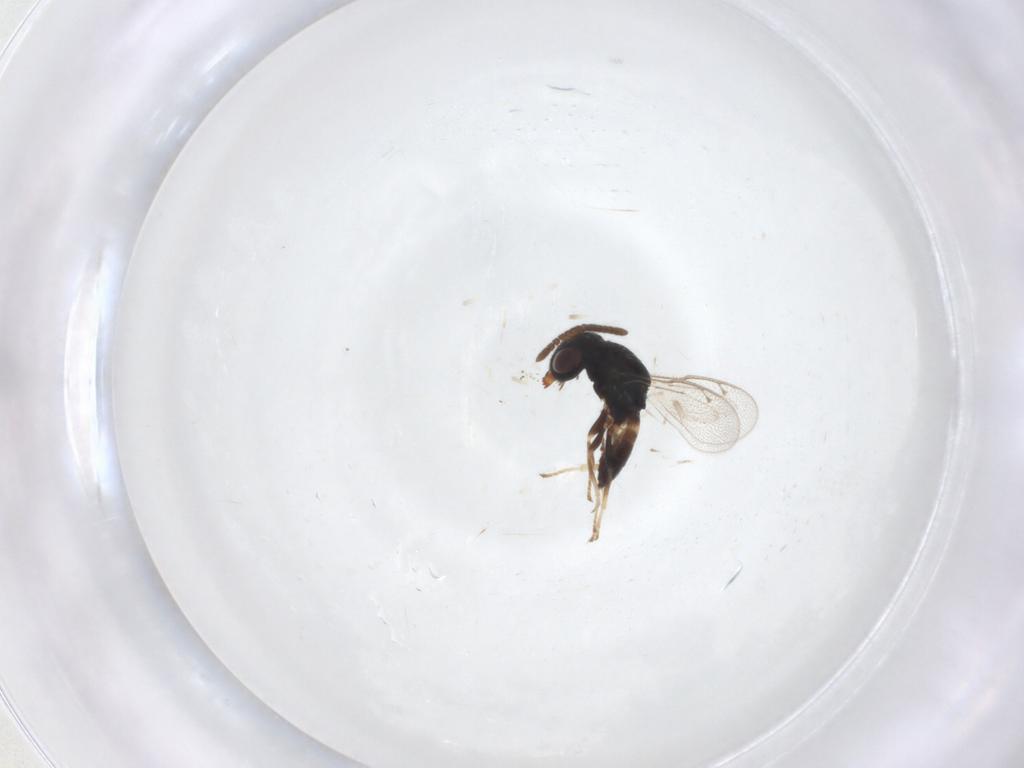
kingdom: Animalia
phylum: Arthropoda
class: Insecta
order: Hymenoptera
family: Pteromalidae
